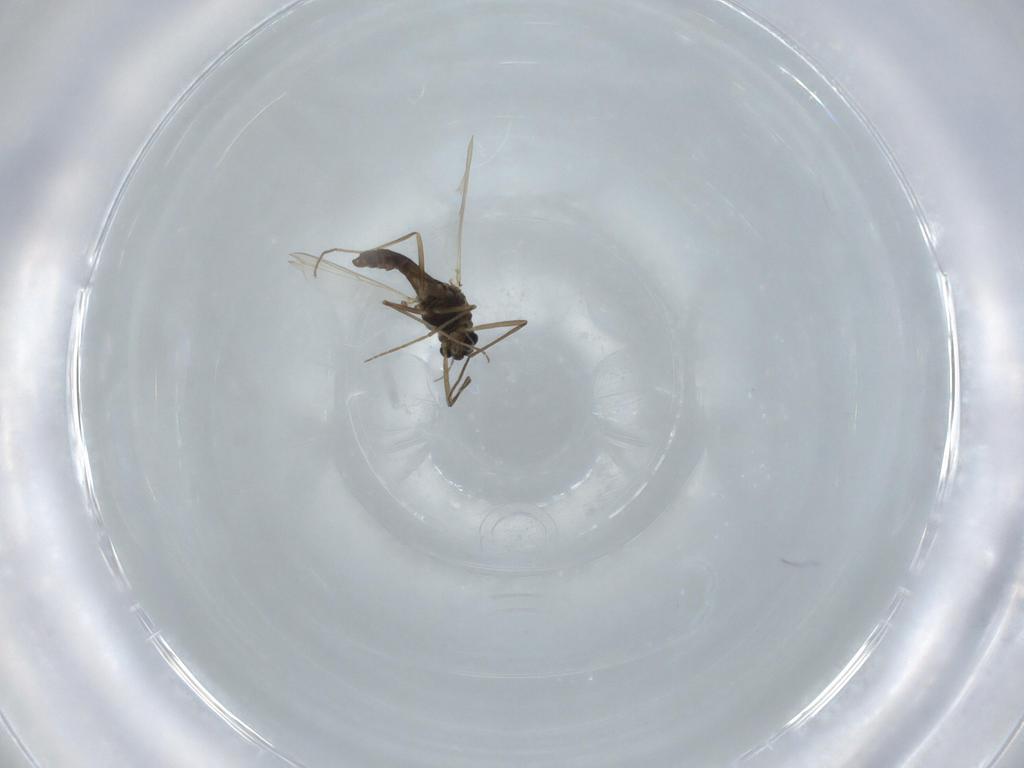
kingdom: Animalia
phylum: Arthropoda
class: Insecta
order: Diptera
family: Chironomidae
